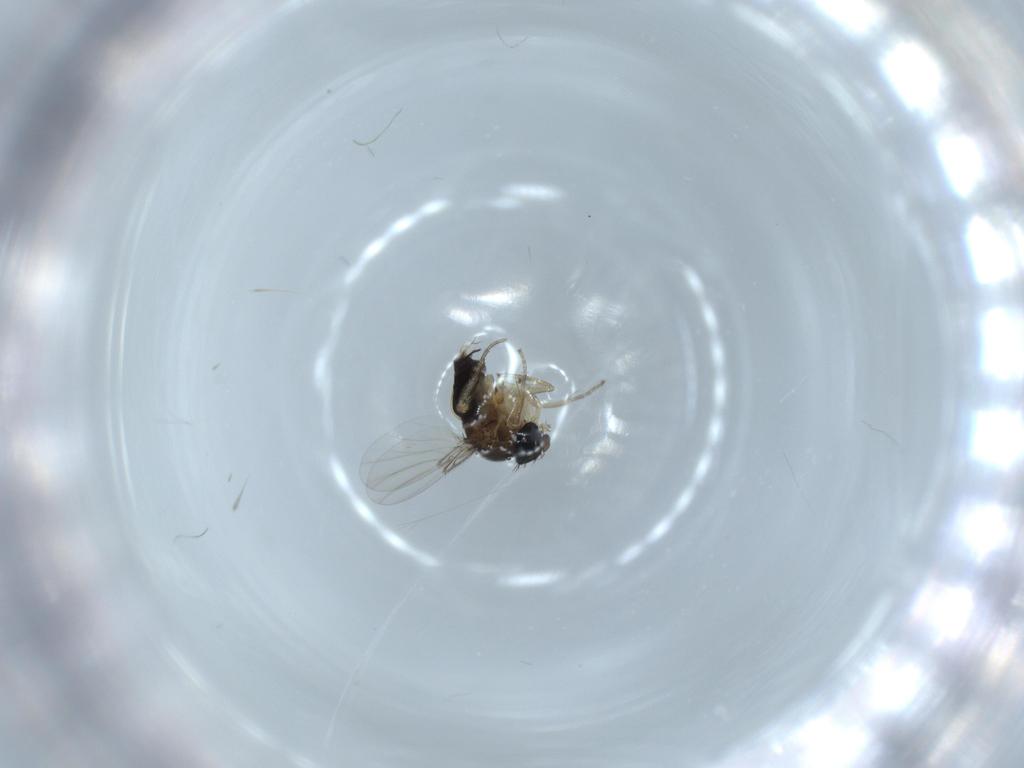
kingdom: Animalia
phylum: Arthropoda
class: Insecta
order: Diptera
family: Phoridae
